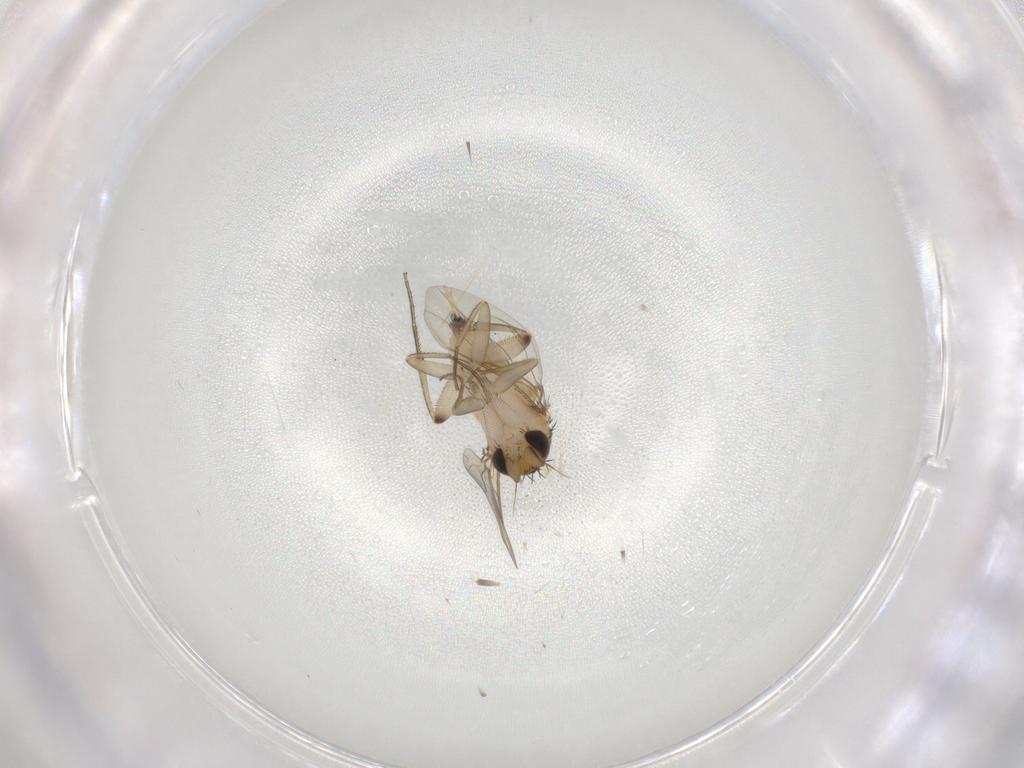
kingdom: Animalia
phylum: Arthropoda
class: Insecta
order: Diptera
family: Phoridae
